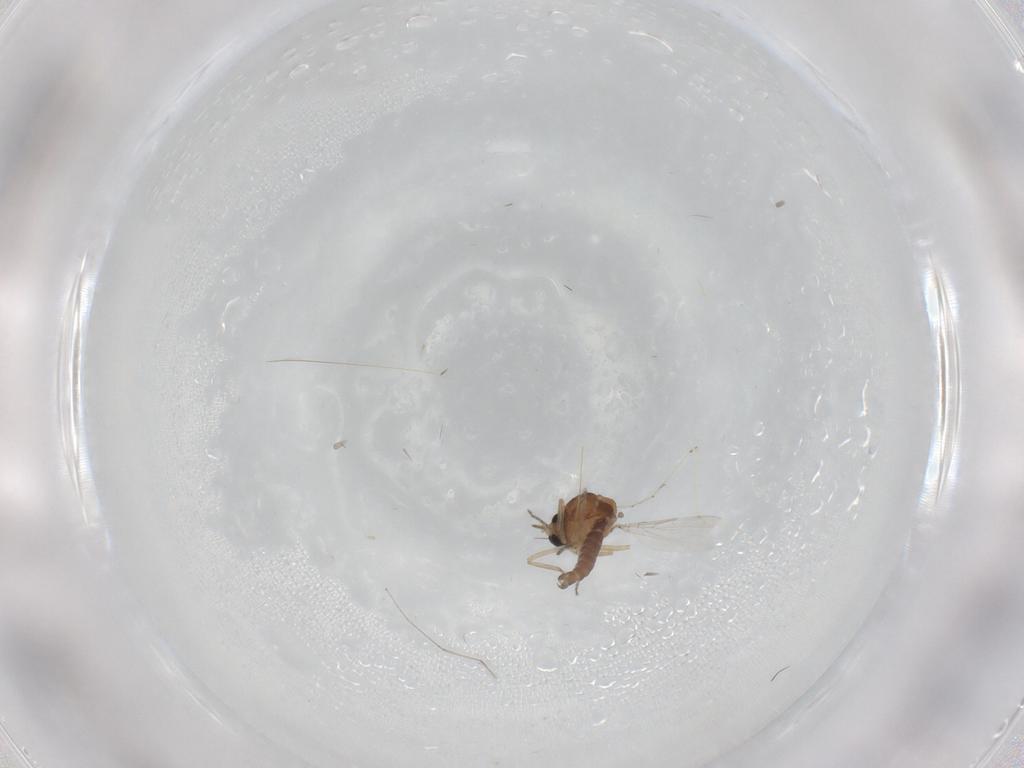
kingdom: Animalia
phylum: Arthropoda
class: Insecta
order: Diptera
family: Ceratopogonidae
